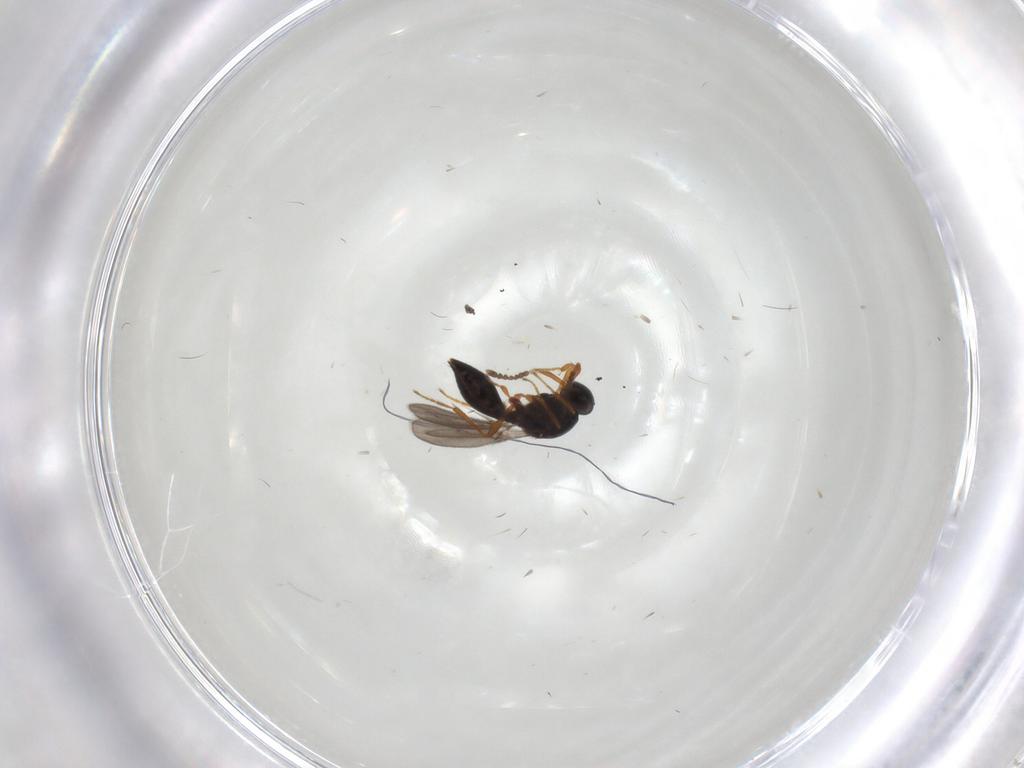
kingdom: Animalia
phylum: Arthropoda
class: Insecta
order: Hymenoptera
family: Platygastridae
